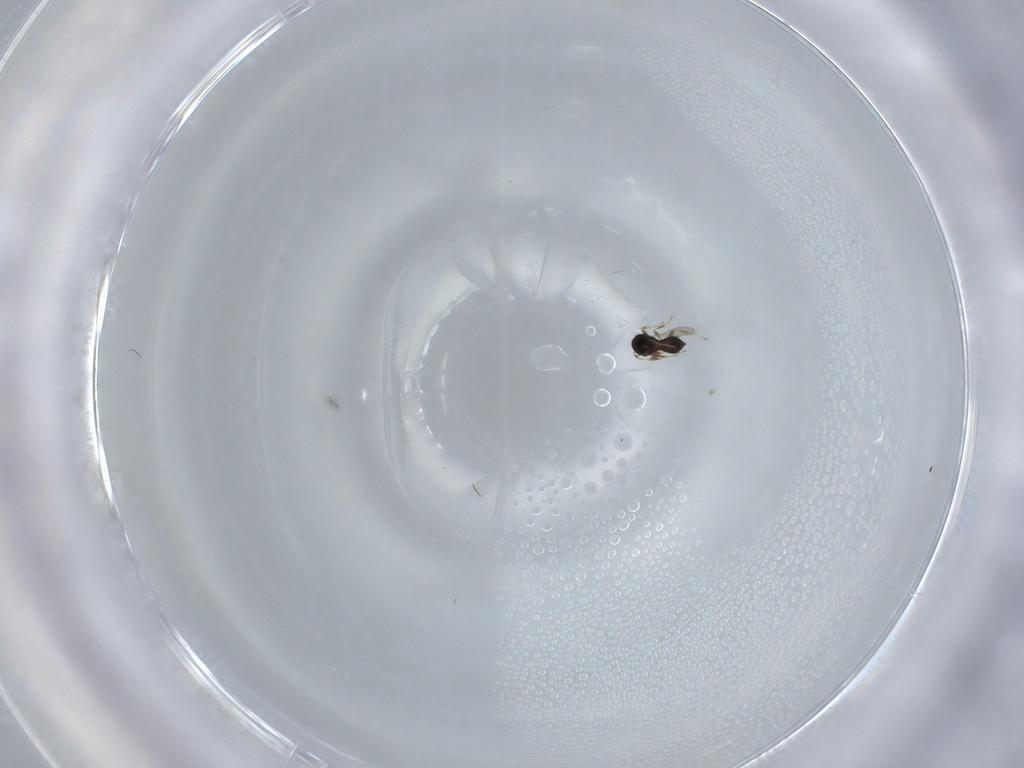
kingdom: Animalia
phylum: Arthropoda
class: Insecta
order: Hymenoptera
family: Scelionidae
